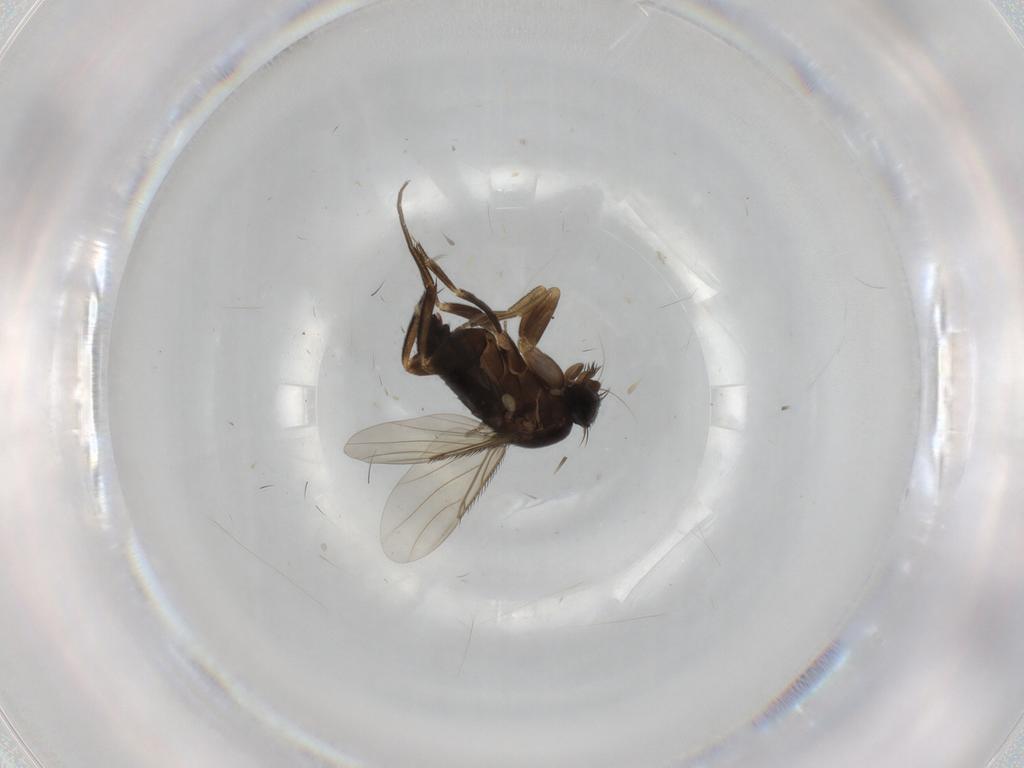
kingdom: Animalia
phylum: Arthropoda
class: Insecta
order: Diptera
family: Phoridae
